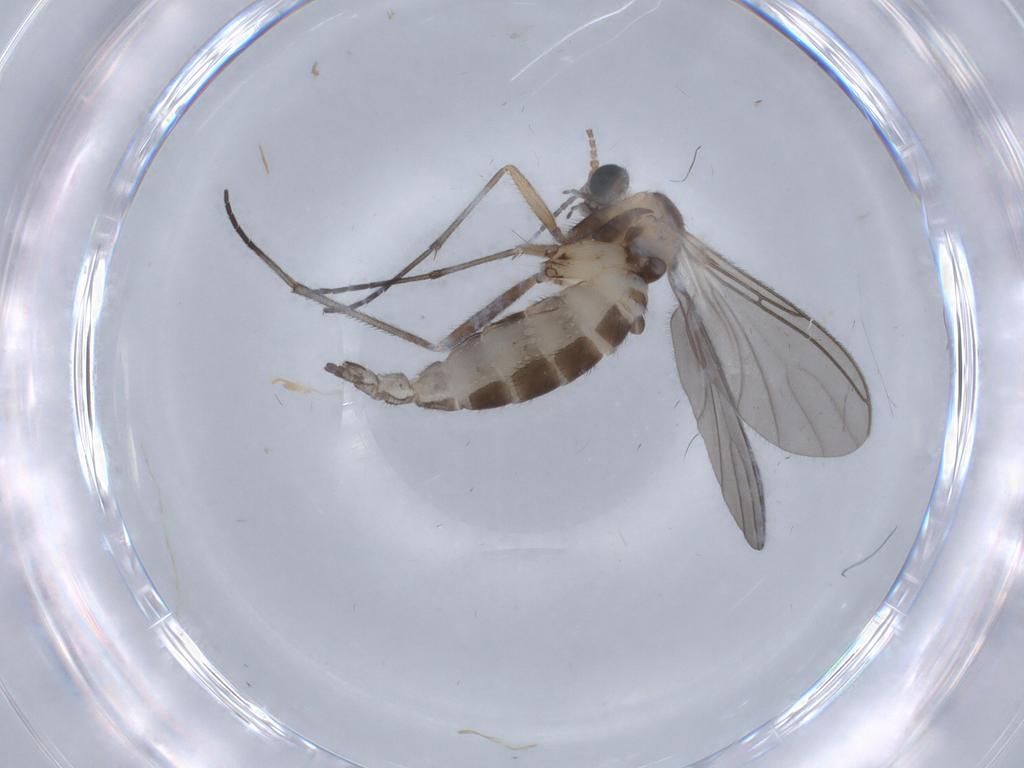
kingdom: Animalia
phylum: Arthropoda
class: Insecta
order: Diptera
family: Sciaridae
